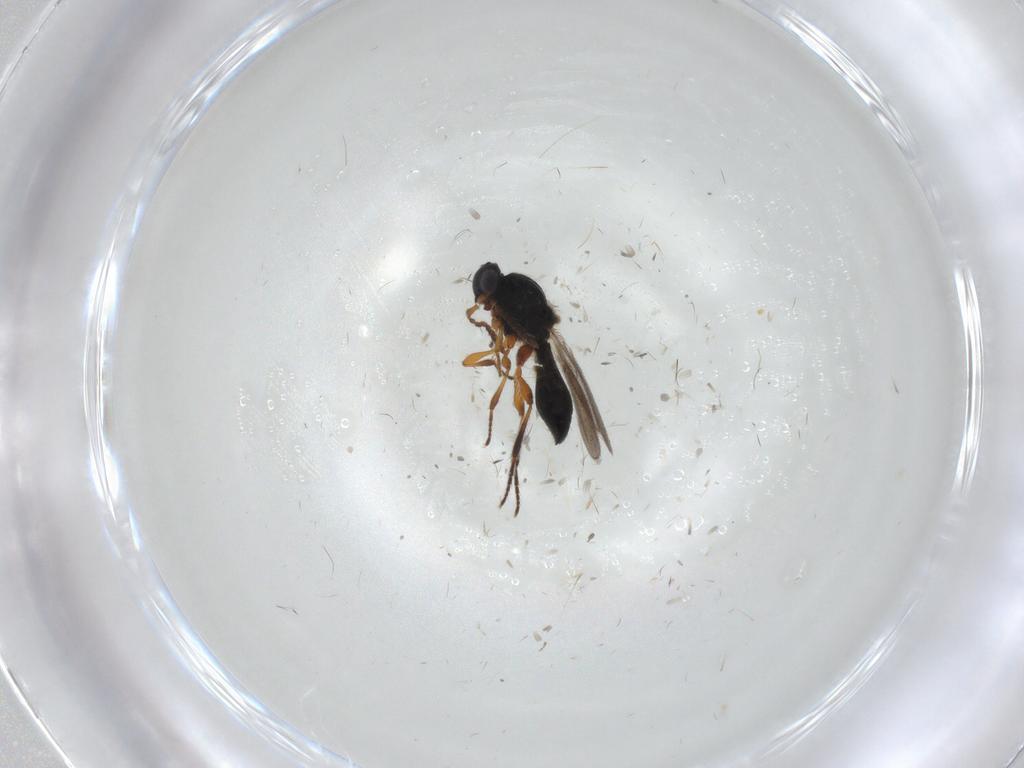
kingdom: Animalia
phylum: Arthropoda
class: Insecta
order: Hymenoptera
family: Platygastridae
